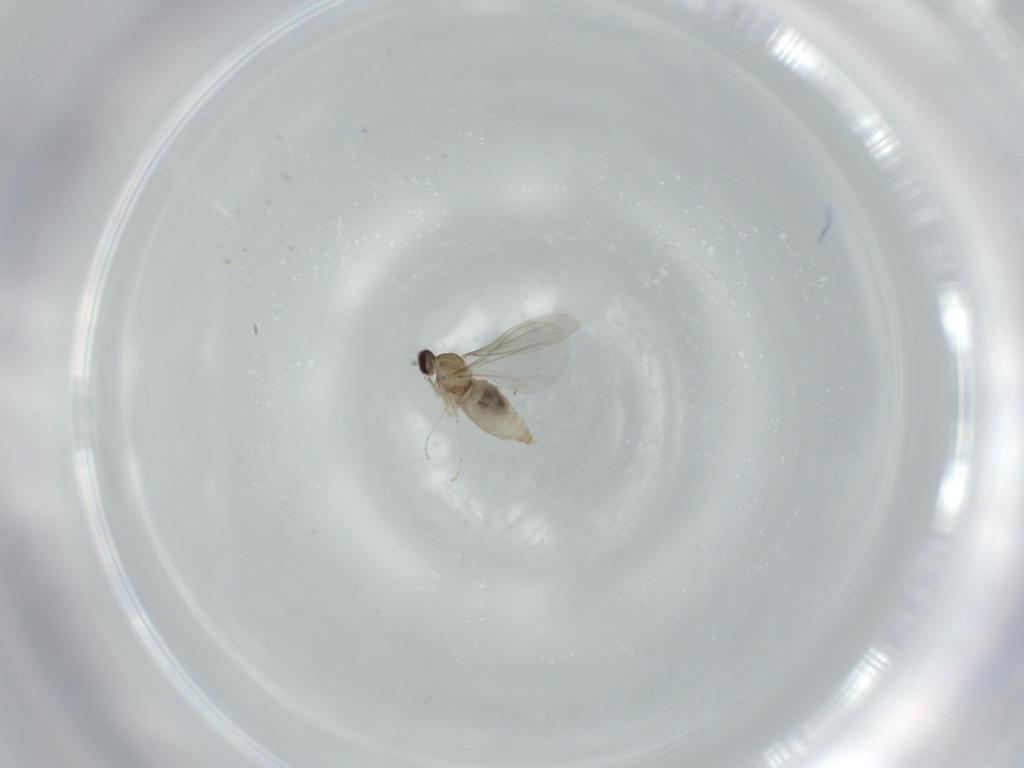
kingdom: Animalia
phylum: Arthropoda
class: Insecta
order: Diptera
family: Cecidomyiidae
